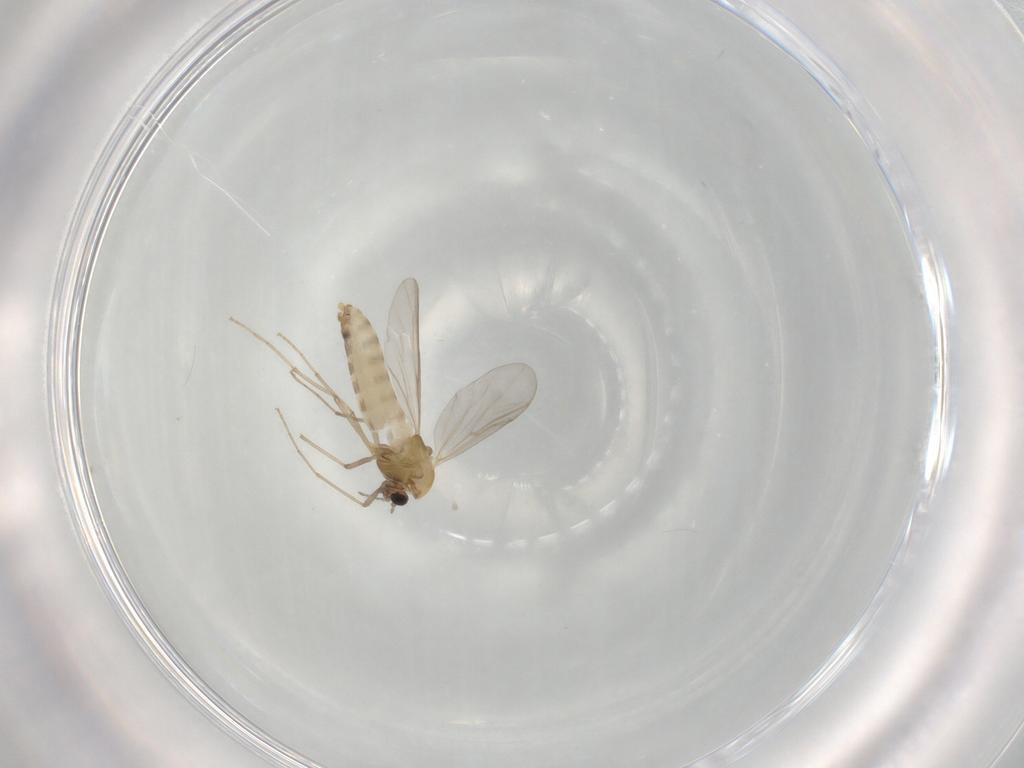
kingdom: Animalia
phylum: Arthropoda
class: Insecta
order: Diptera
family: Chironomidae
